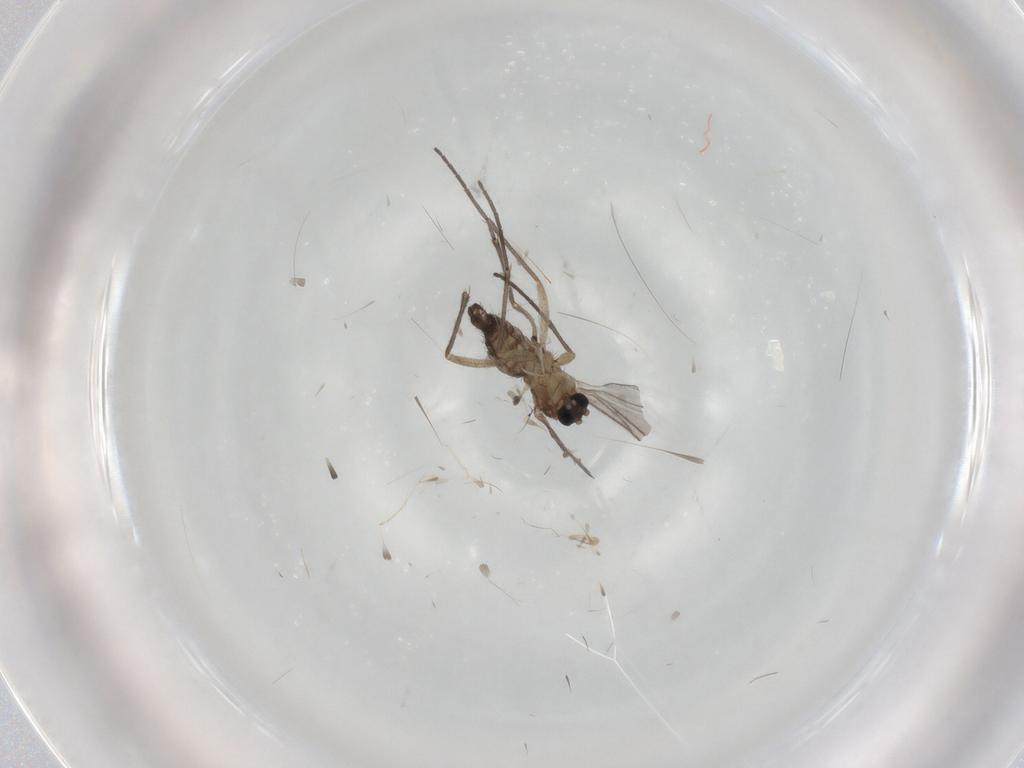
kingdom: Animalia
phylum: Arthropoda
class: Insecta
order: Diptera
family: Sciaridae
